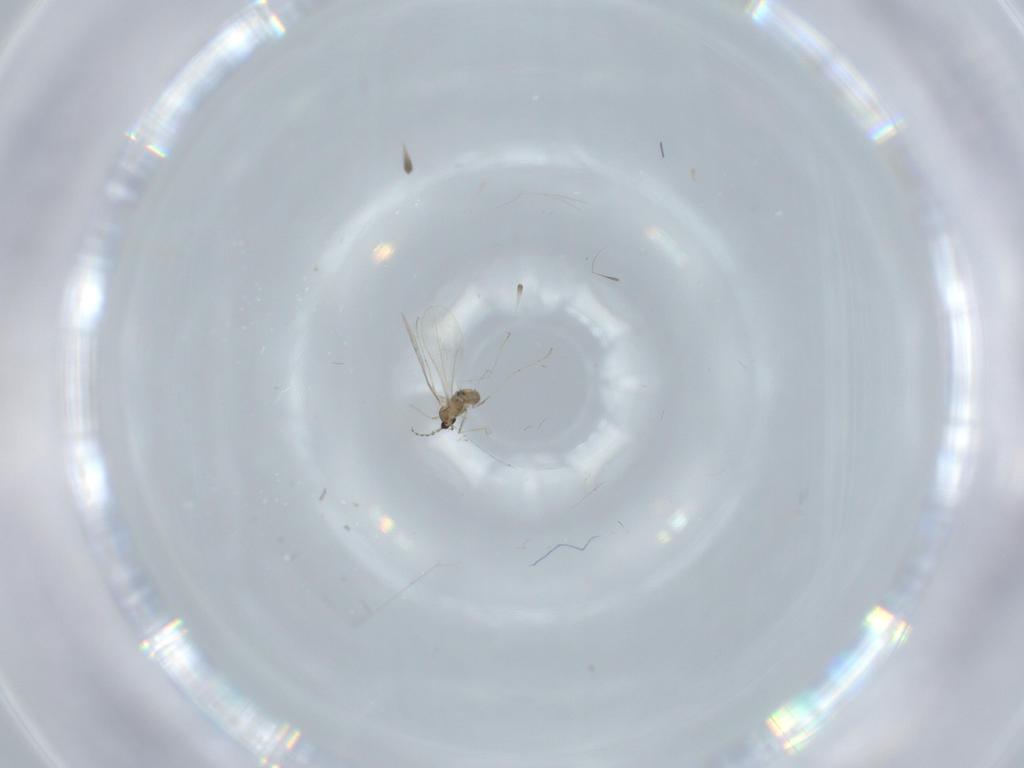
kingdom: Animalia
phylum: Arthropoda
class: Insecta
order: Diptera
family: Cecidomyiidae
